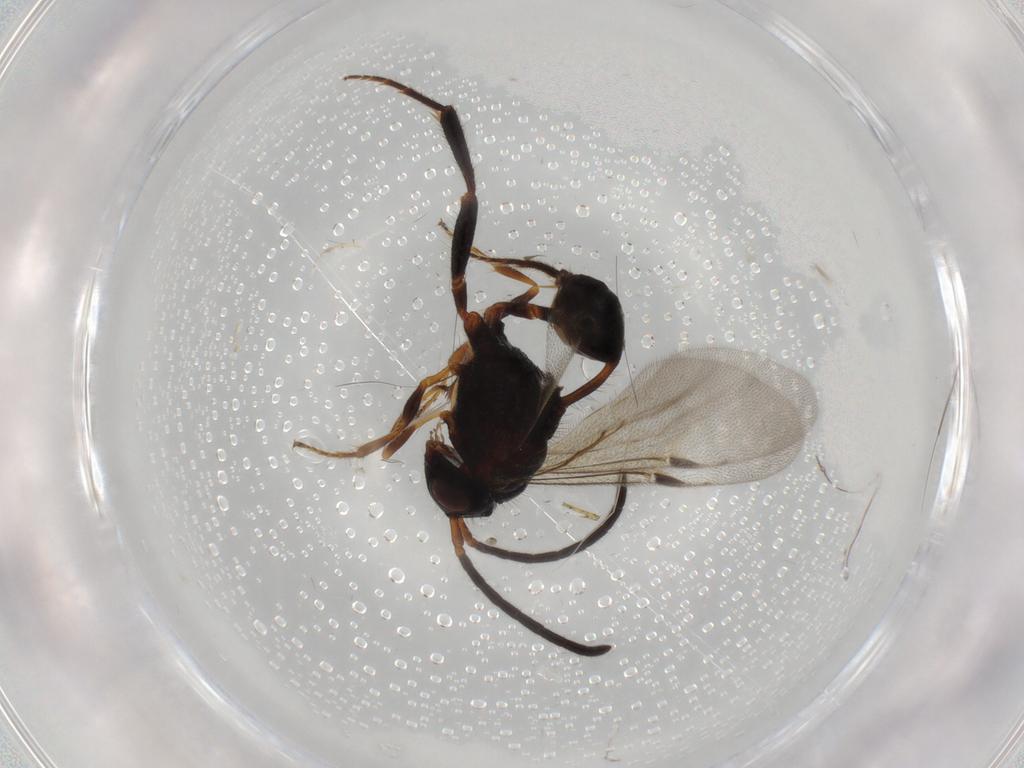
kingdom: Animalia
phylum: Arthropoda
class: Insecta
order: Hymenoptera
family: Evaniidae
